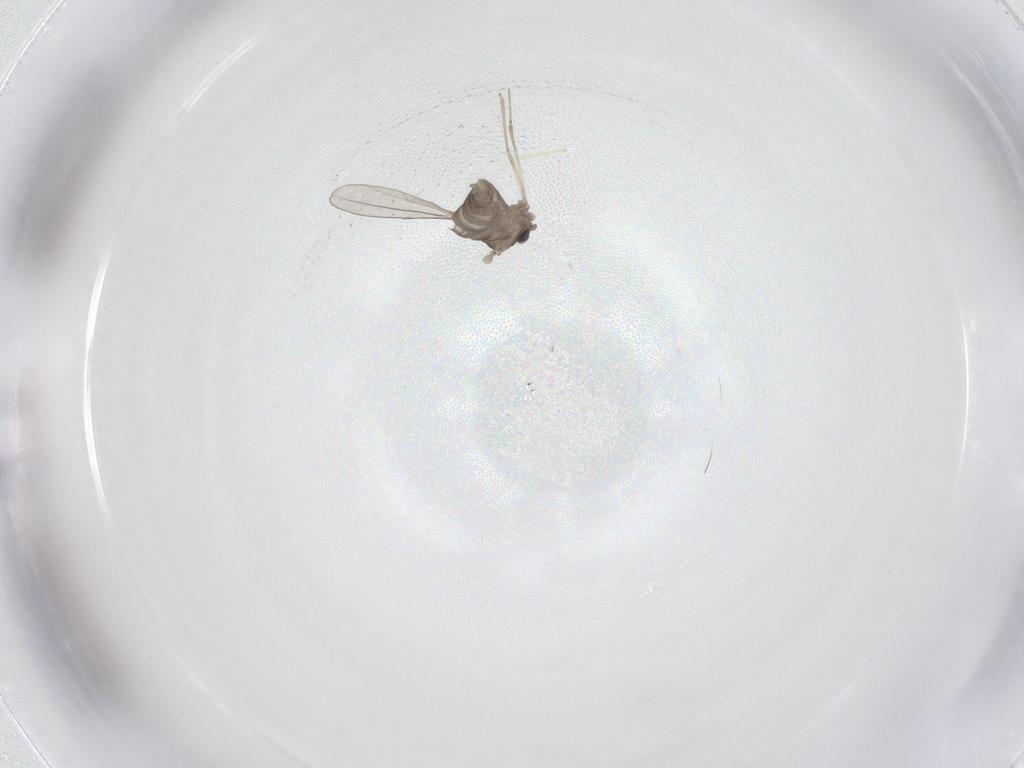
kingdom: Animalia
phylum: Arthropoda
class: Insecta
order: Diptera
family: Cecidomyiidae
